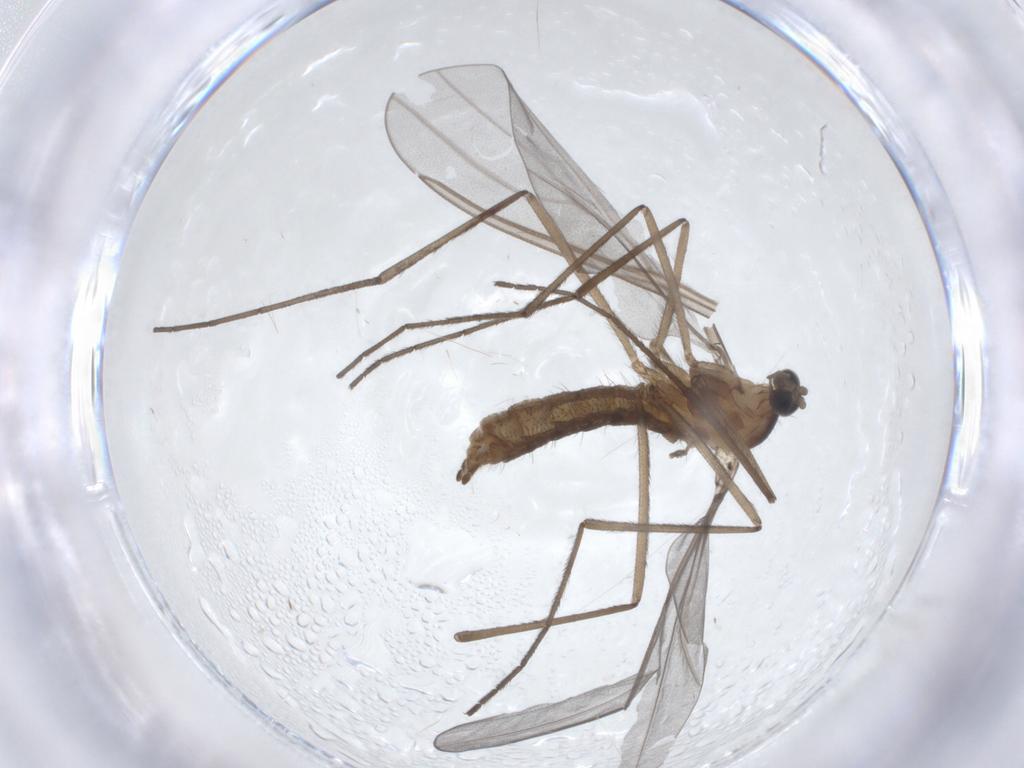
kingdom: Animalia
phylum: Arthropoda
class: Insecta
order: Diptera
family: Cecidomyiidae
